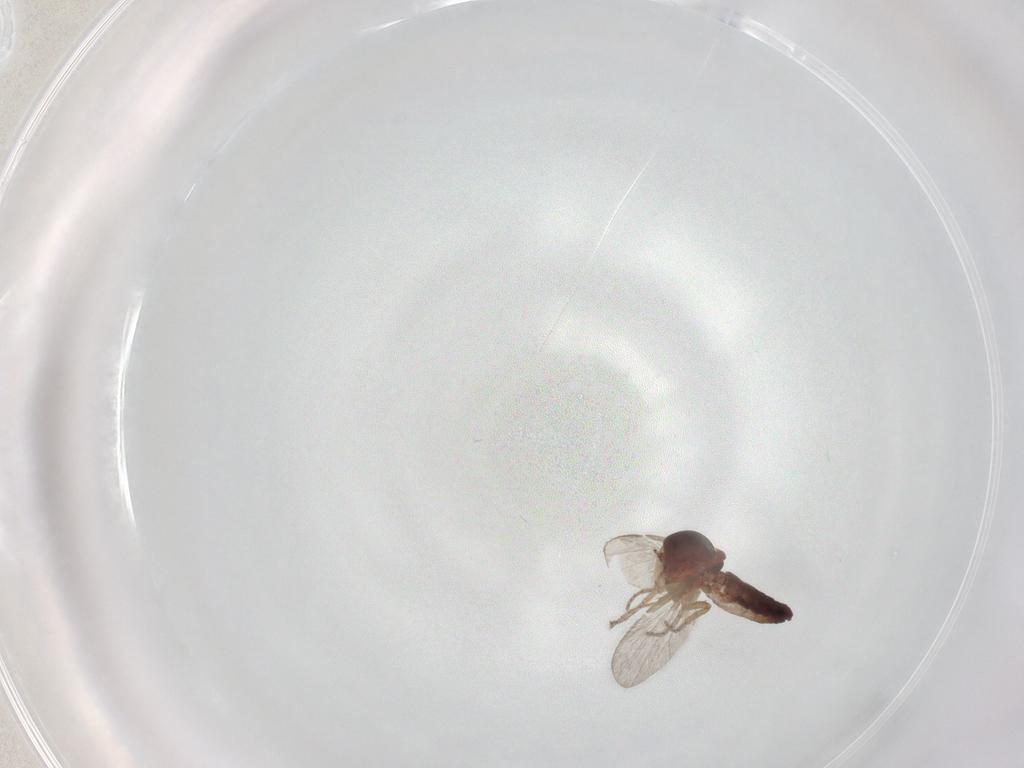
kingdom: Animalia
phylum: Arthropoda
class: Insecta
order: Diptera
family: Ceratopogonidae
